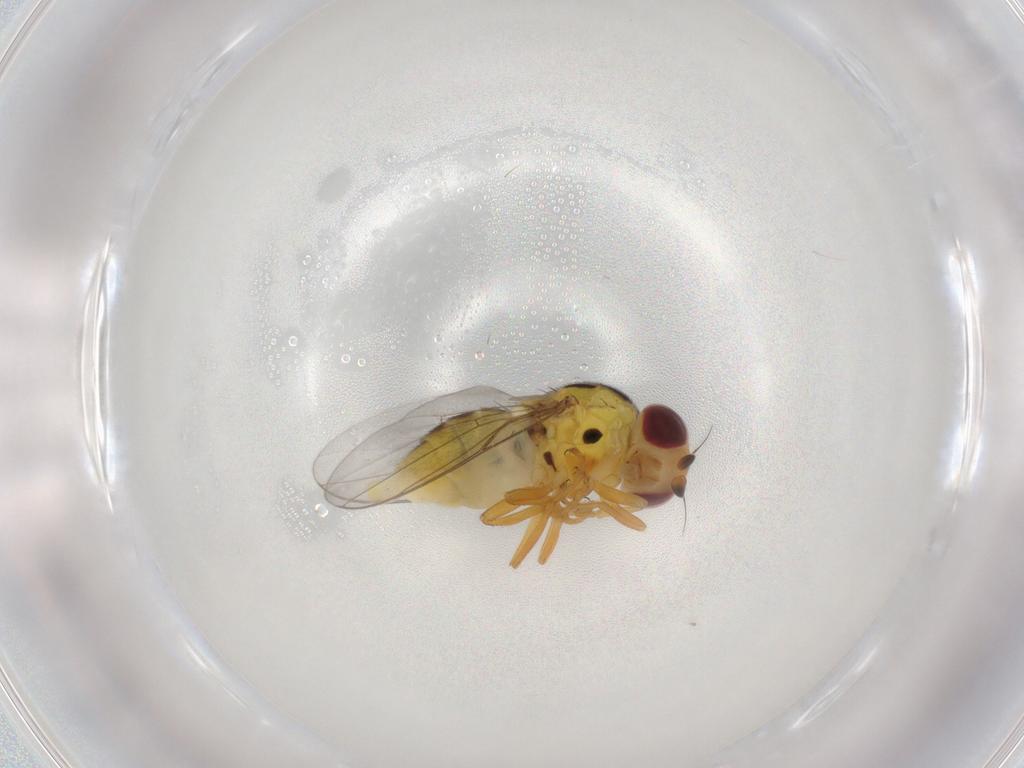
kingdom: Animalia
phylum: Arthropoda
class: Insecta
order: Diptera
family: Chloropidae
